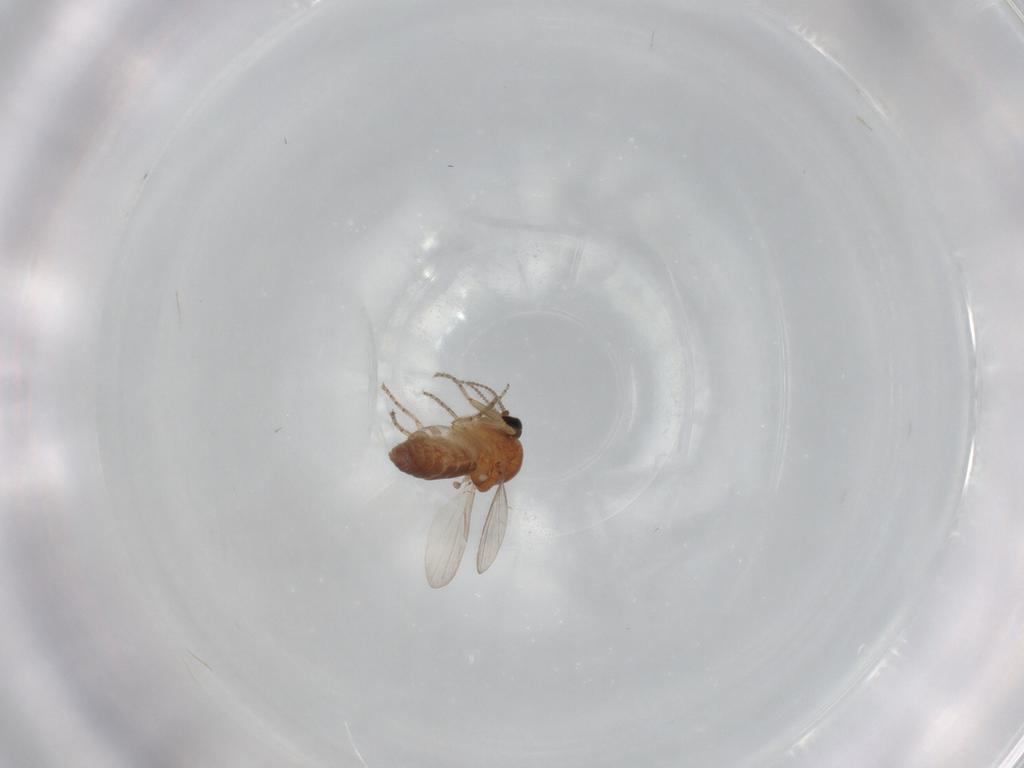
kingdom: Animalia
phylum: Arthropoda
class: Insecta
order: Diptera
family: Ceratopogonidae
